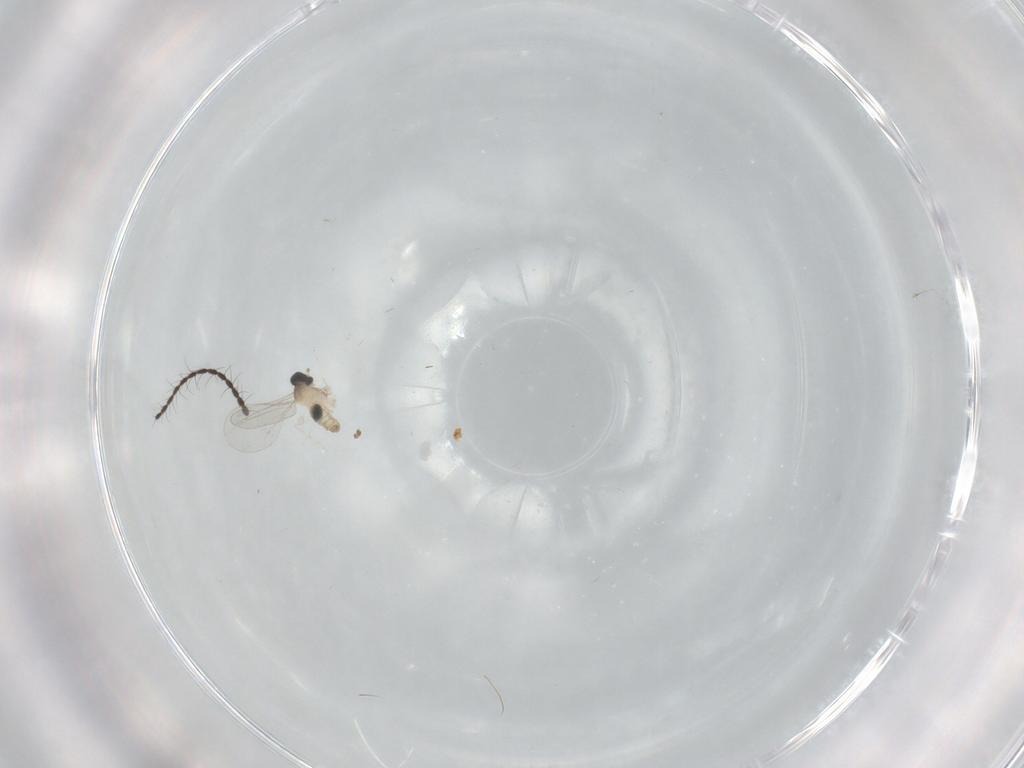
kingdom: Animalia
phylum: Arthropoda
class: Insecta
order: Diptera
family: Limoniidae
